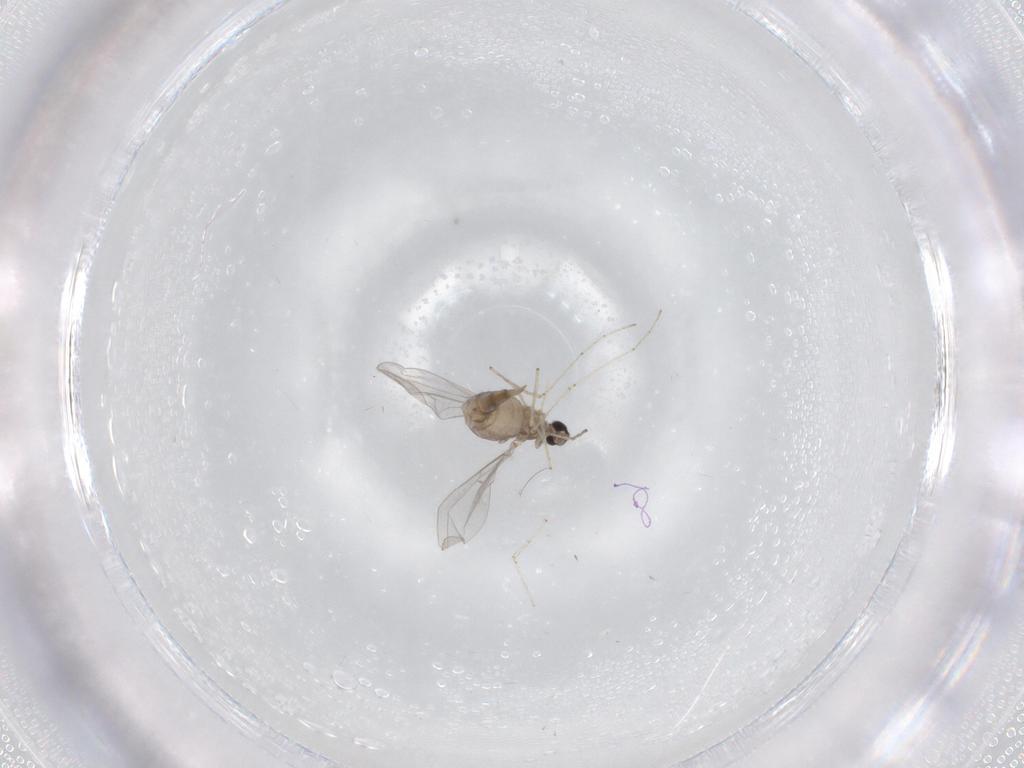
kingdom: Animalia
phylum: Arthropoda
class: Insecta
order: Diptera
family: Cecidomyiidae
